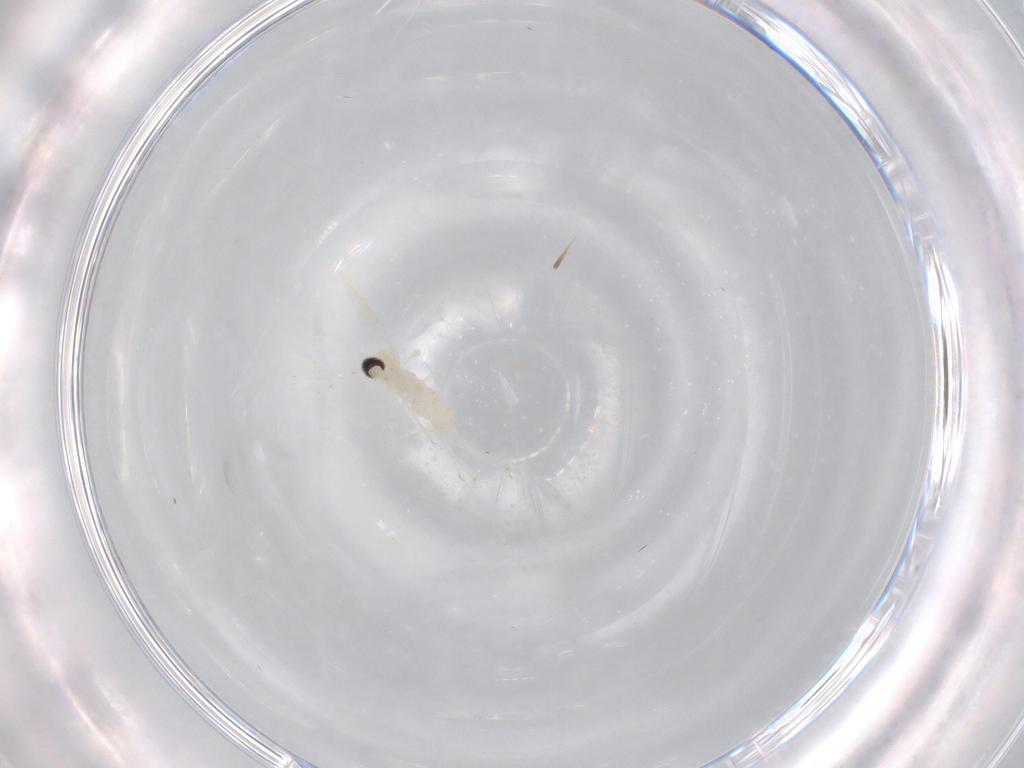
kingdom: Animalia
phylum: Arthropoda
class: Insecta
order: Diptera
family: Cecidomyiidae
